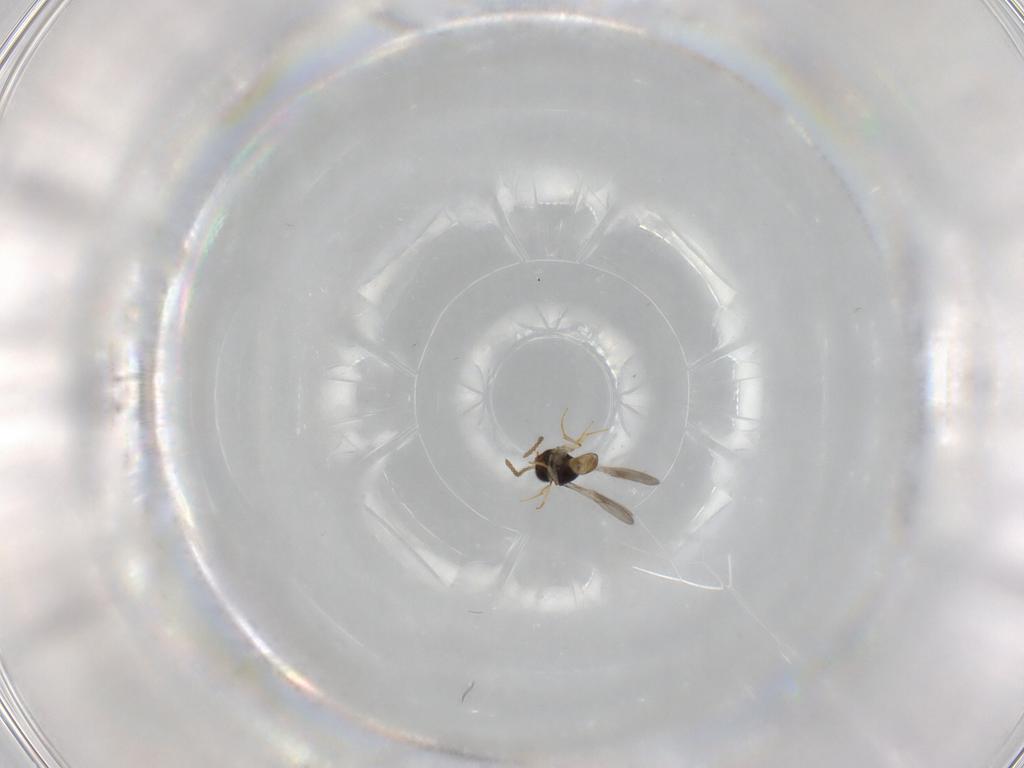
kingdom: Animalia
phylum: Arthropoda
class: Insecta
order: Hymenoptera
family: Scelionidae
